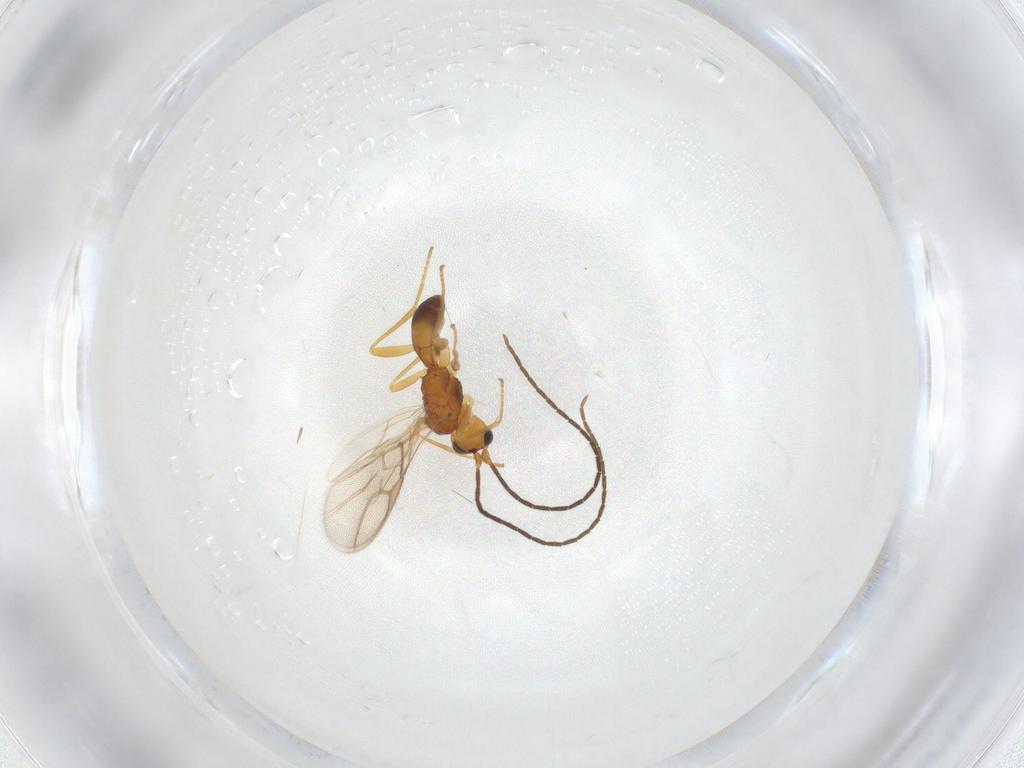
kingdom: Animalia
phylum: Arthropoda
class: Insecta
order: Hymenoptera
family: Braconidae
